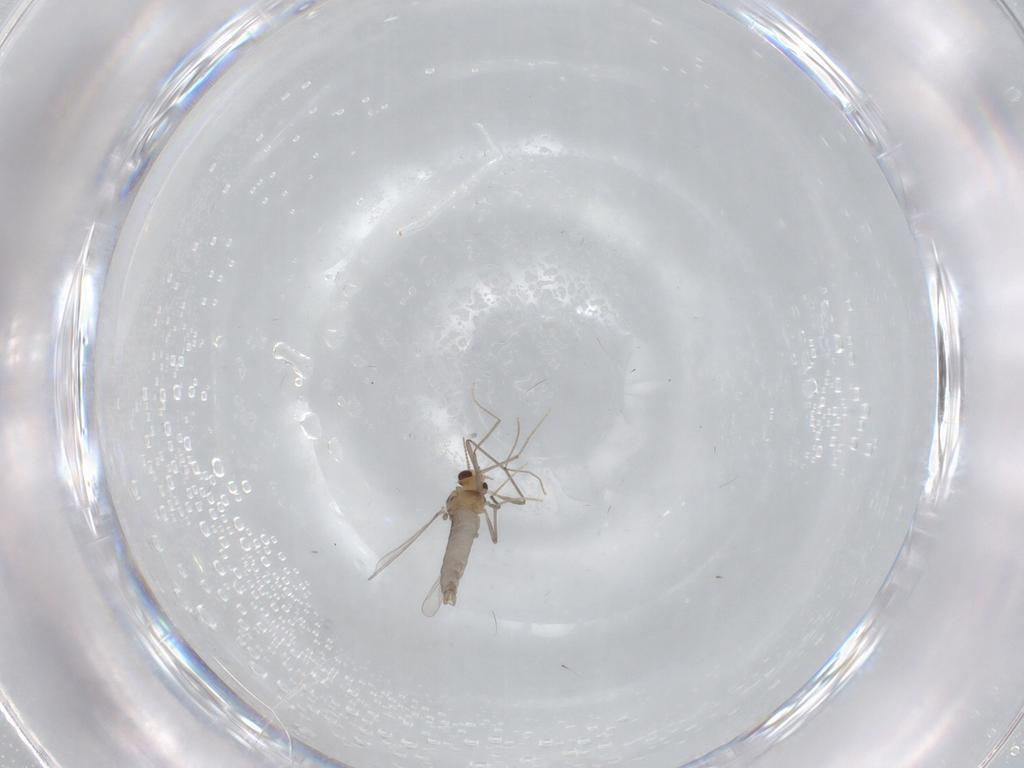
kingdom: Animalia
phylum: Arthropoda
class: Insecta
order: Diptera
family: Chironomidae
